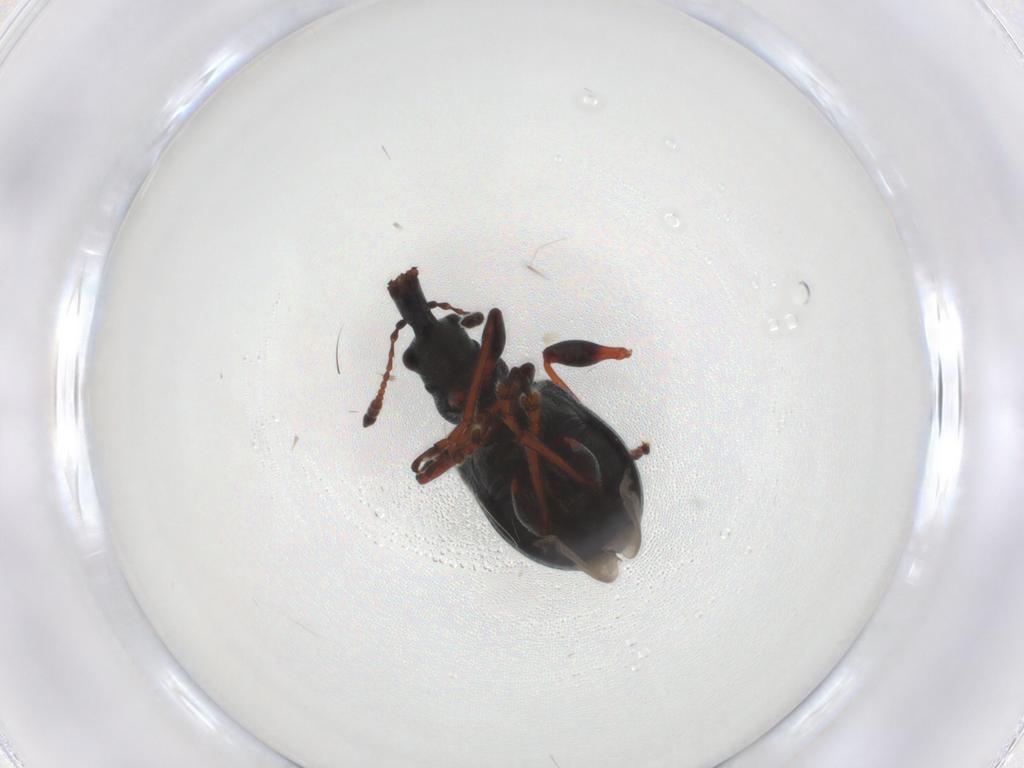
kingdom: Animalia
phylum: Arthropoda
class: Insecta
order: Coleoptera
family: Attelabidae
